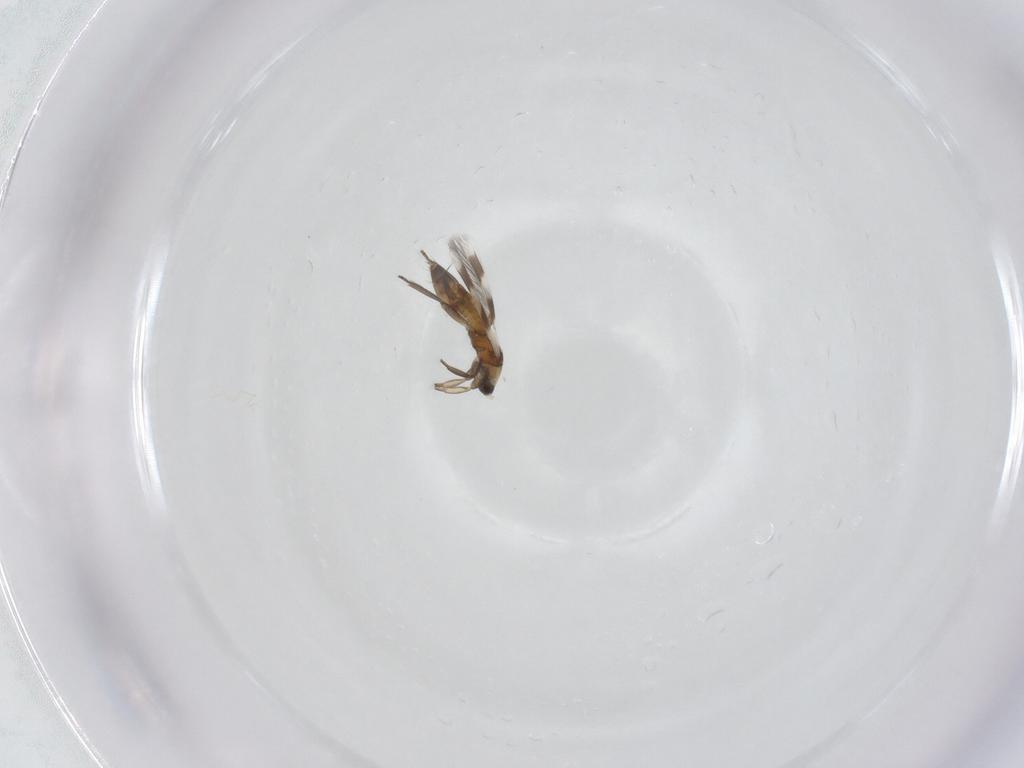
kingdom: Animalia
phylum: Arthropoda
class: Insecta
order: Thysanoptera
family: Aeolothripidae
